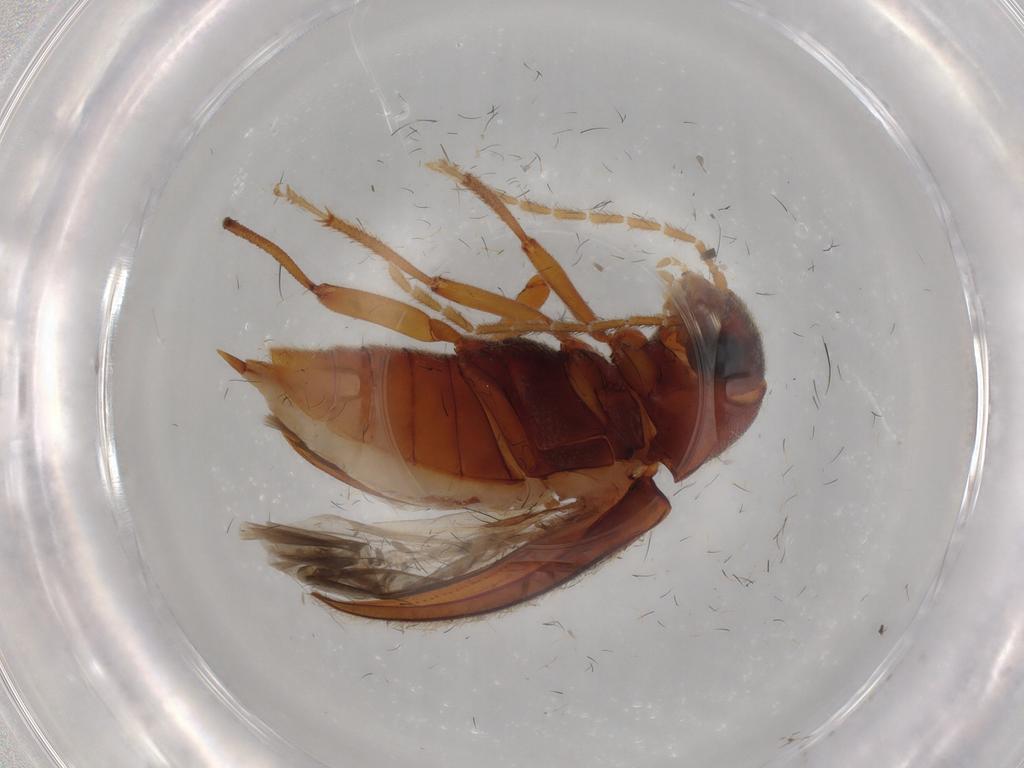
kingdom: Animalia
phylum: Arthropoda
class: Insecta
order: Coleoptera
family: Ptilodactylidae
